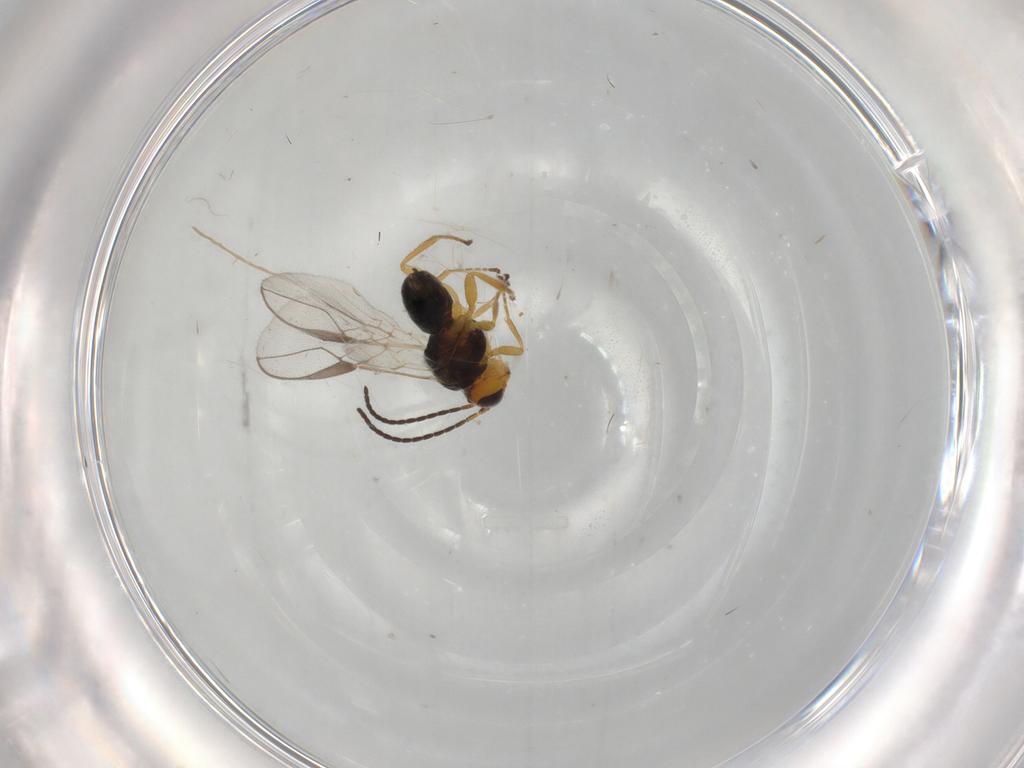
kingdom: Animalia
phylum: Arthropoda
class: Insecta
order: Hymenoptera
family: Braconidae
